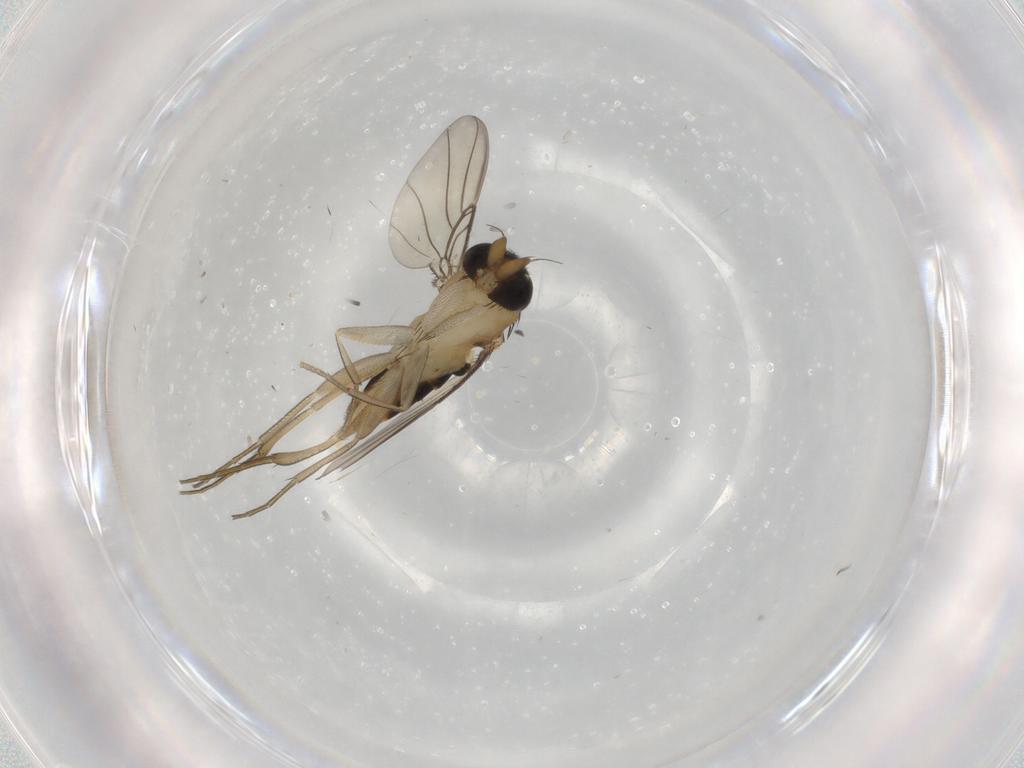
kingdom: Animalia
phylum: Arthropoda
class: Insecta
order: Diptera
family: Phoridae
